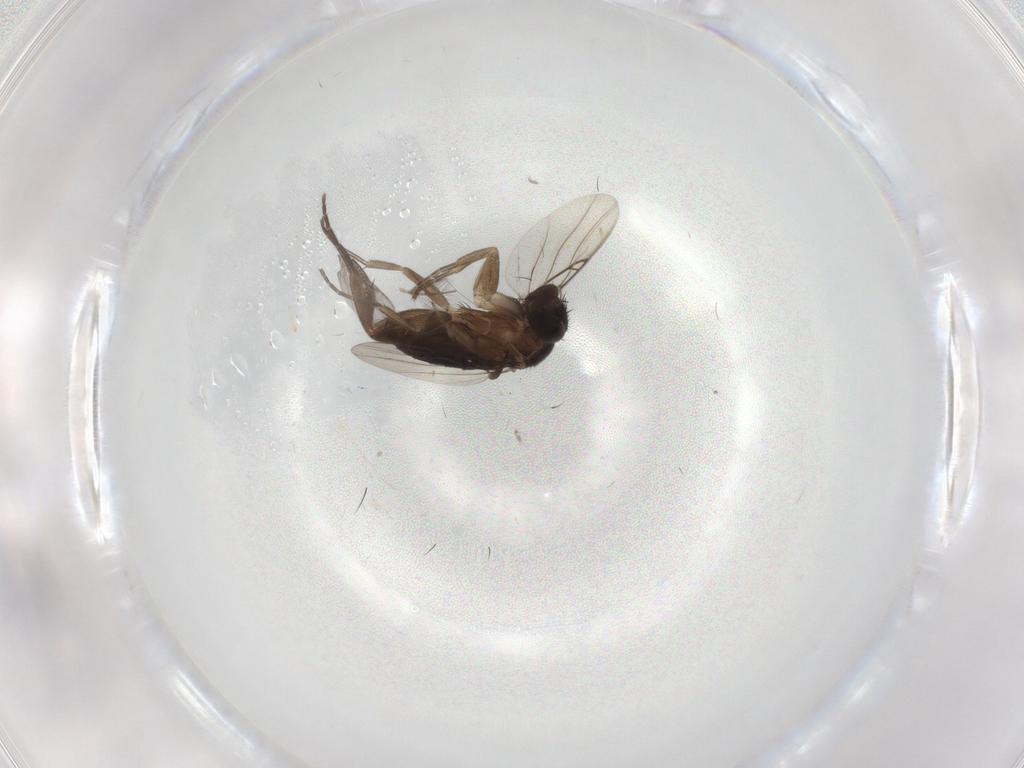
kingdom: Animalia
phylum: Arthropoda
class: Insecta
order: Diptera
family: Phoridae
